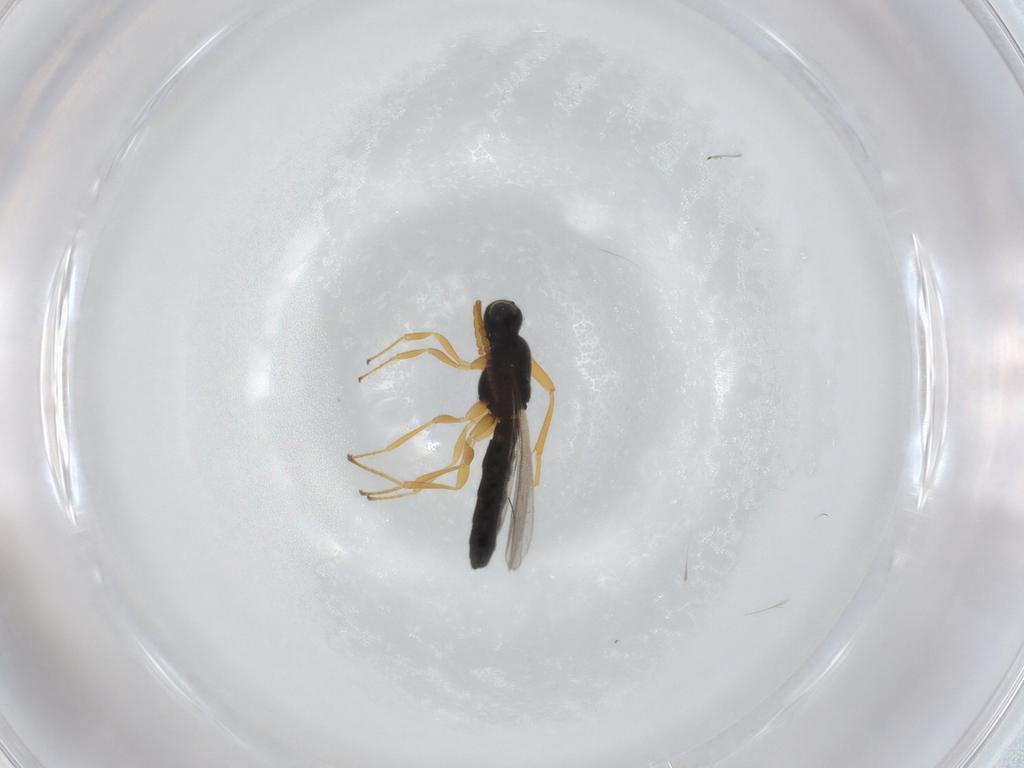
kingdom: Animalia
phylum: Arthropoda
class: Insecta
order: Hymenoptera
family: Scelionidae
